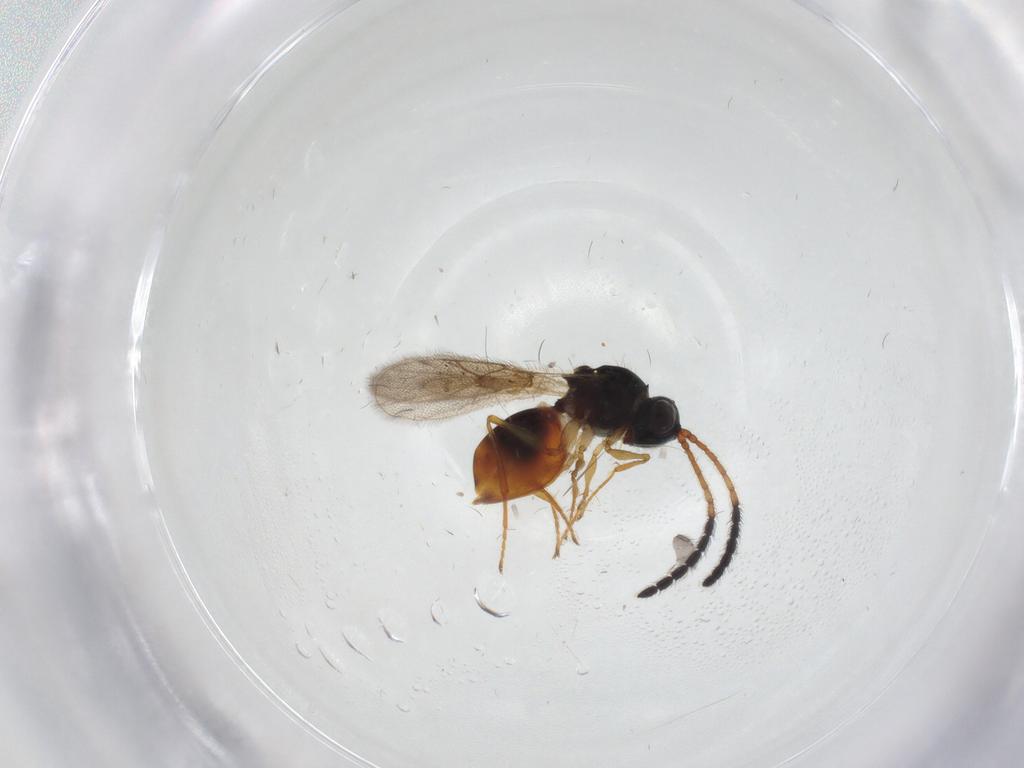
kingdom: Animalia
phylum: Arthropoda
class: Insecta
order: Hymenoptera
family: Figitidae
